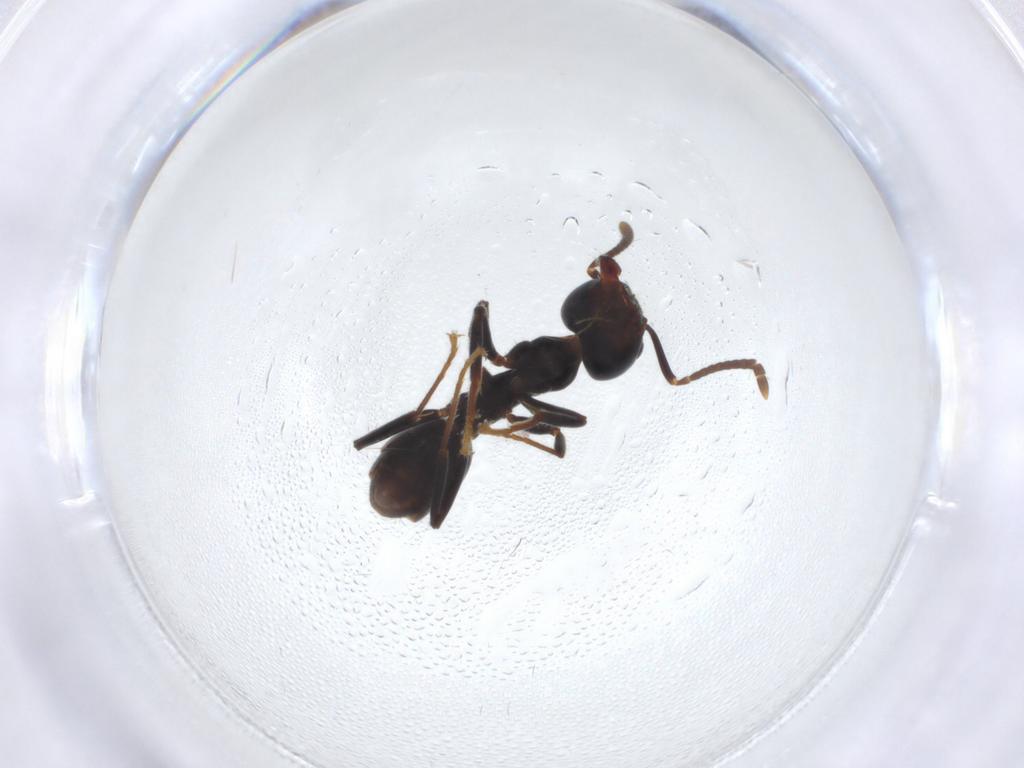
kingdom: Animalia
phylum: Arthropoda
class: Insecta
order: Hymenoptera
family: Formicidae
